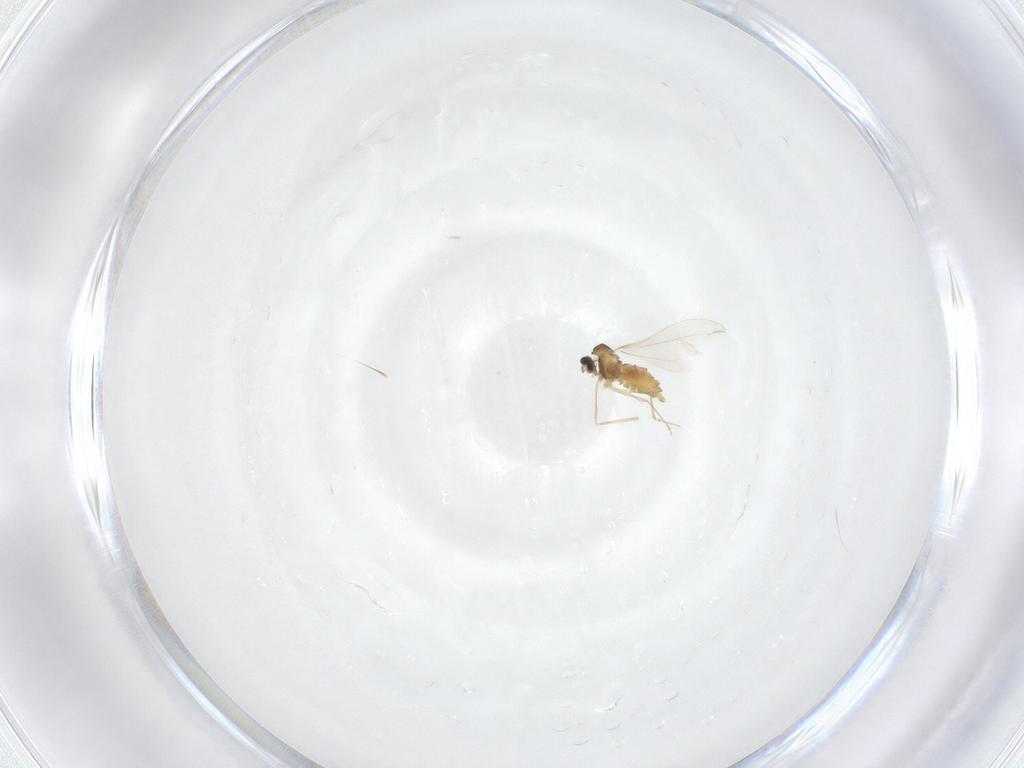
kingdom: Animalia
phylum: Arthropoda
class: Insecta
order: Diptera
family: Cecidomyiidae
